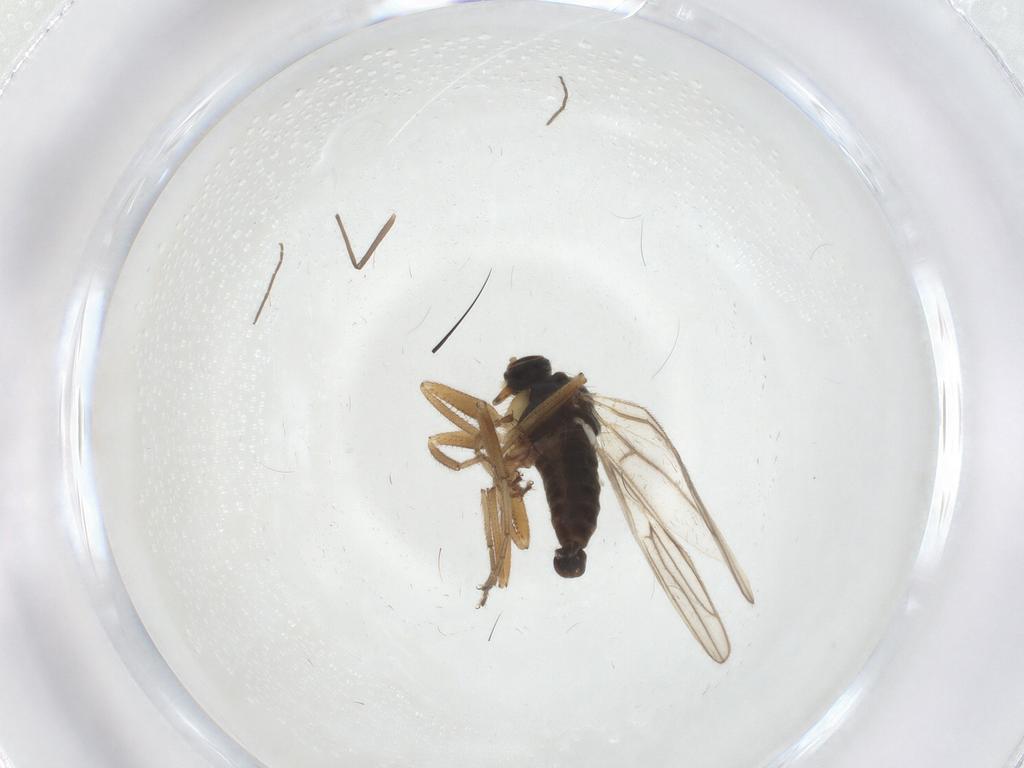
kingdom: Animalia
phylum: Arthropoda
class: Insecta
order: Diptera
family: Hybotidae
